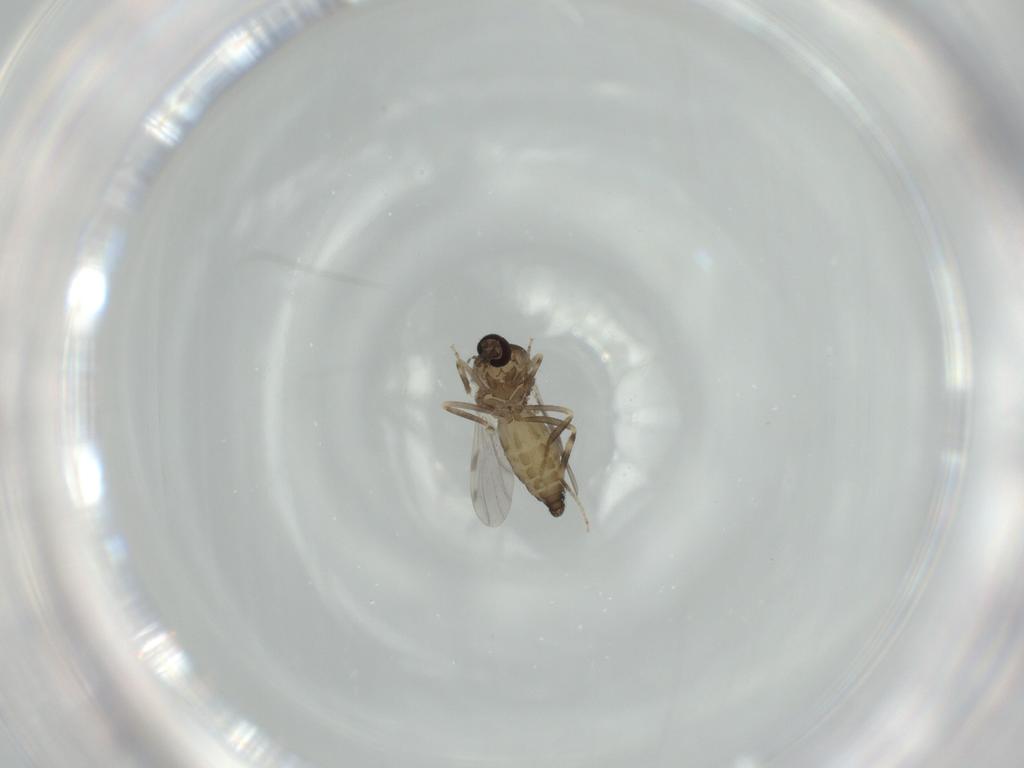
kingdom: Animalia
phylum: Arthropoda
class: Insecta
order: Diptera
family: Ceratopogonidae
